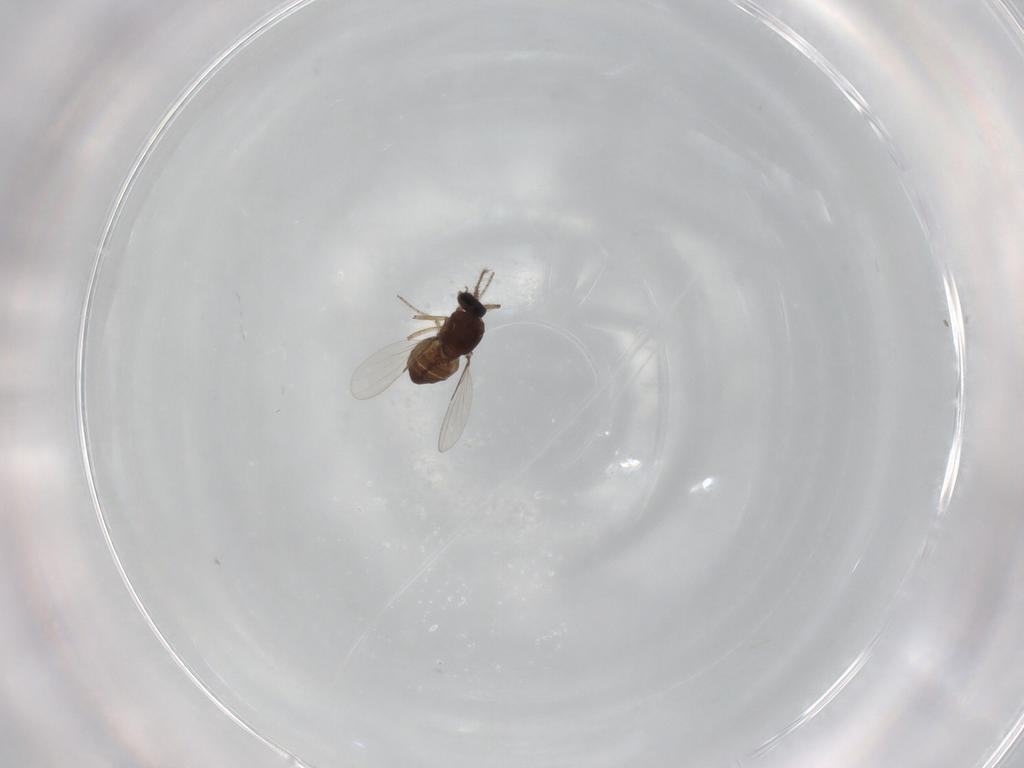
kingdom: Animalia
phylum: Arthropoda
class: Insecta
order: Diptera
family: Ceratopogonidae
